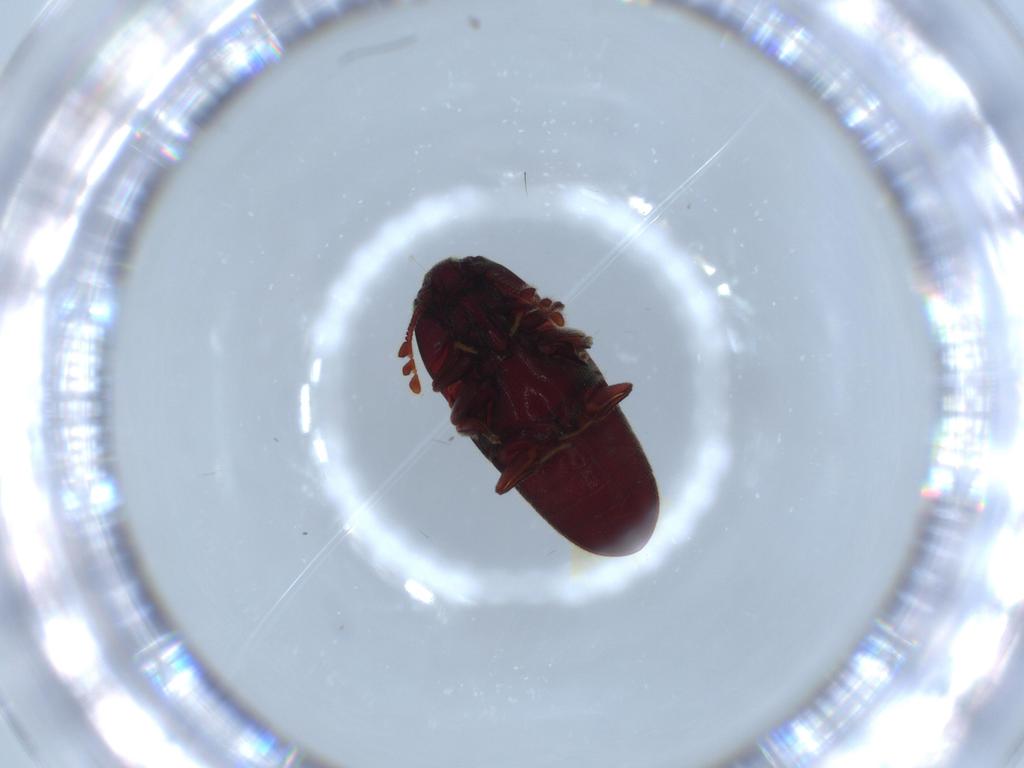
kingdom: Animalia
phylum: Arthropoda
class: Insecta
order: Coleoptera
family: Throscidae
